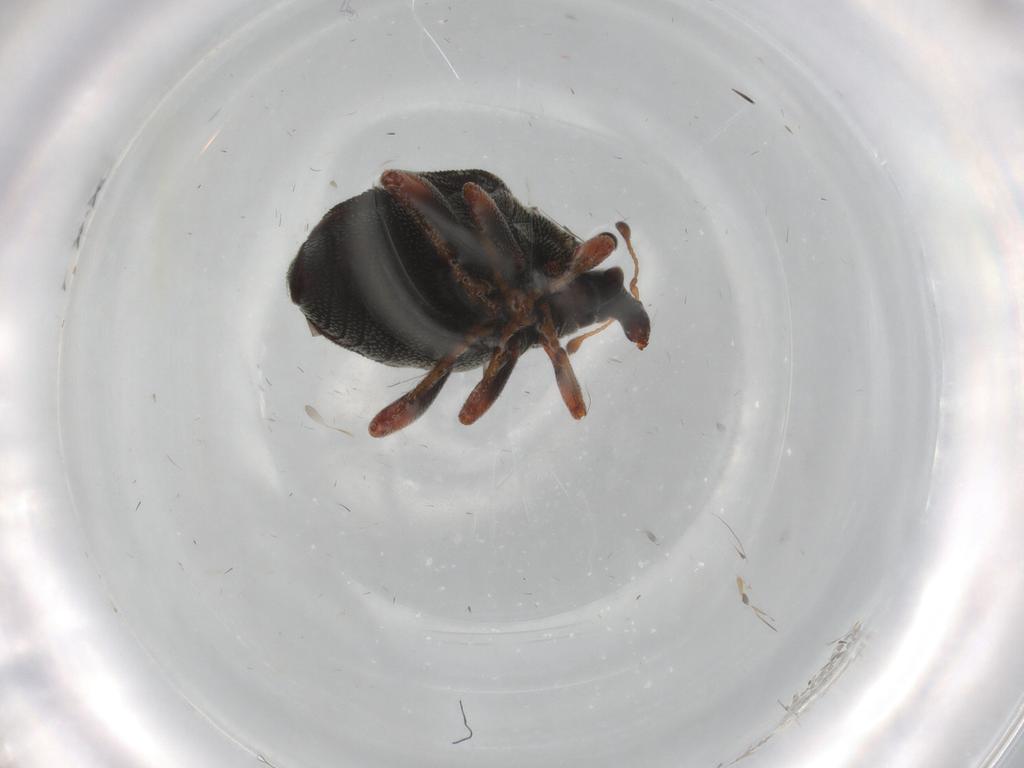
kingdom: Animalia
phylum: Arthropoda
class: Insecta
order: Coleoptera
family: Curculionidae
